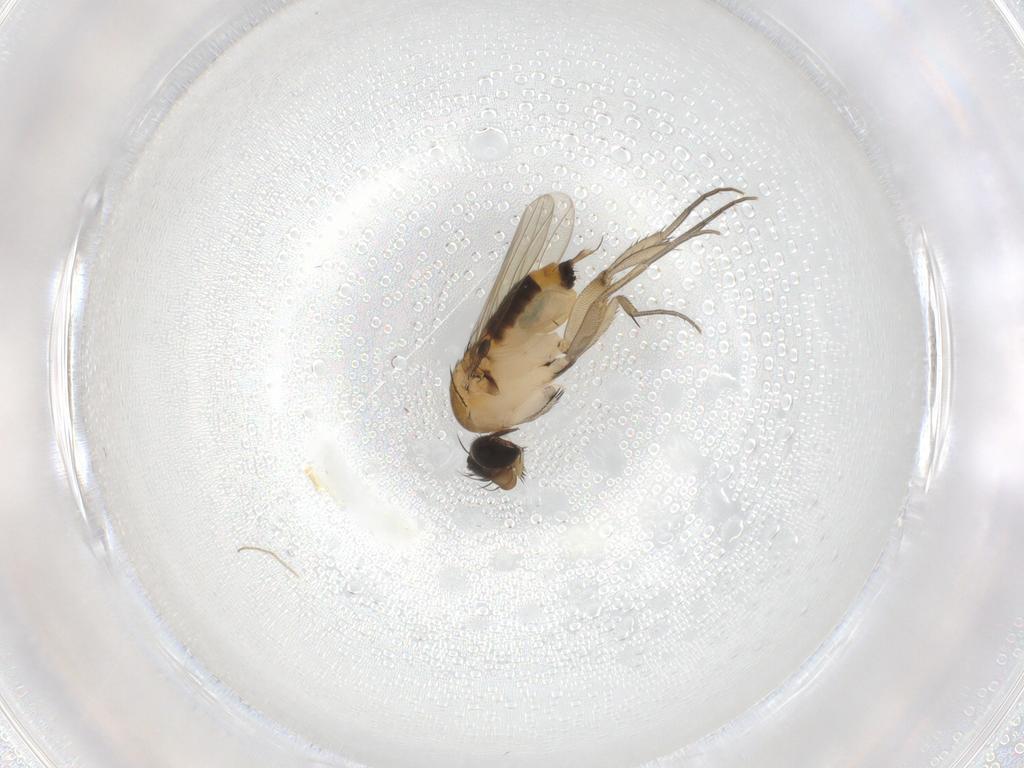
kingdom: Animalia
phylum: Arthropoda
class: Insecta
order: Diptera
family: Phoridae
